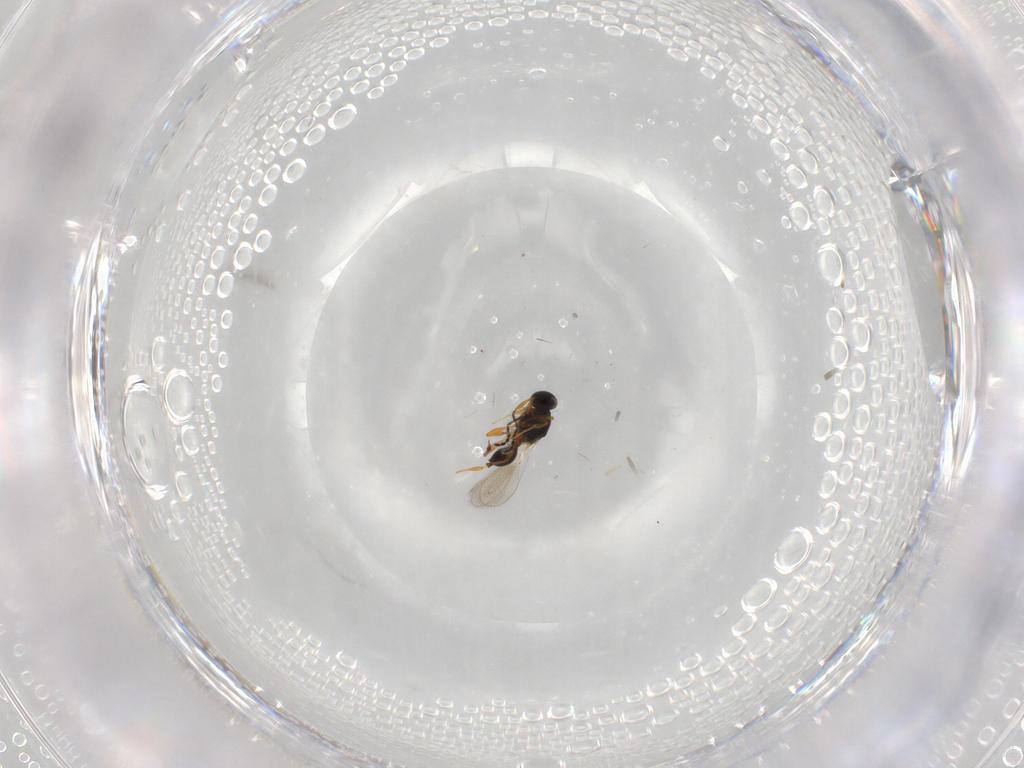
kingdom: Animalia
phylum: Arthropoda
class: Insecta
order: Hymenoptera
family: Platygastridae
